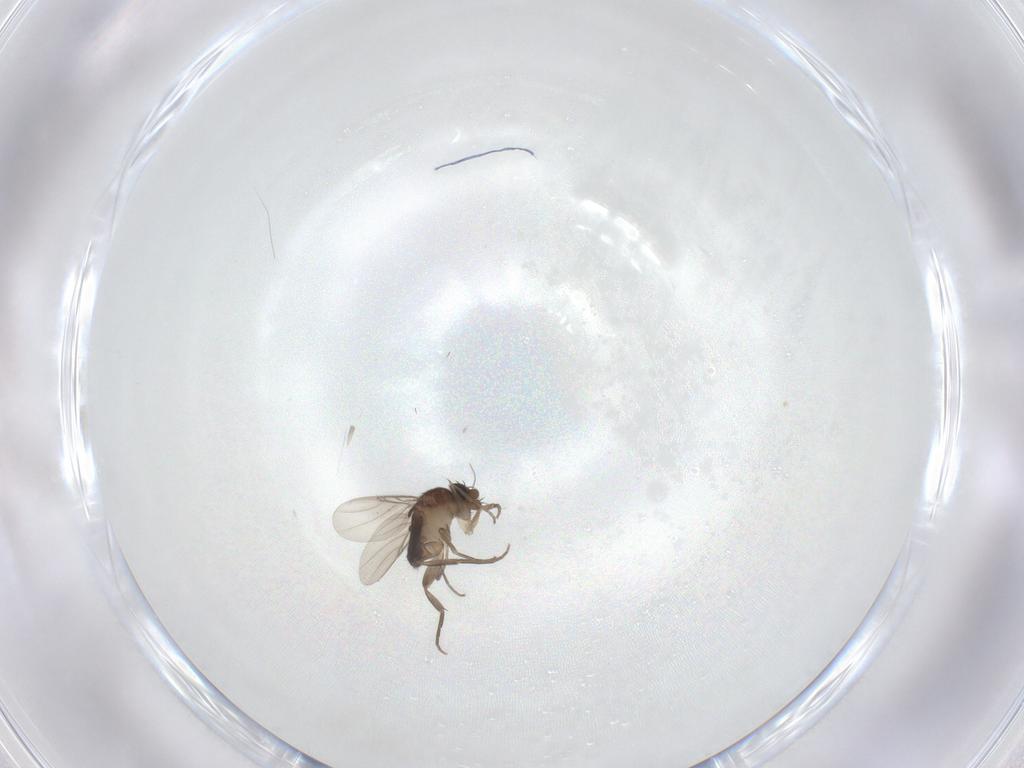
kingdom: Animalia
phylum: Arthropoda
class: Insecta
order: Diptera
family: Phoridae
